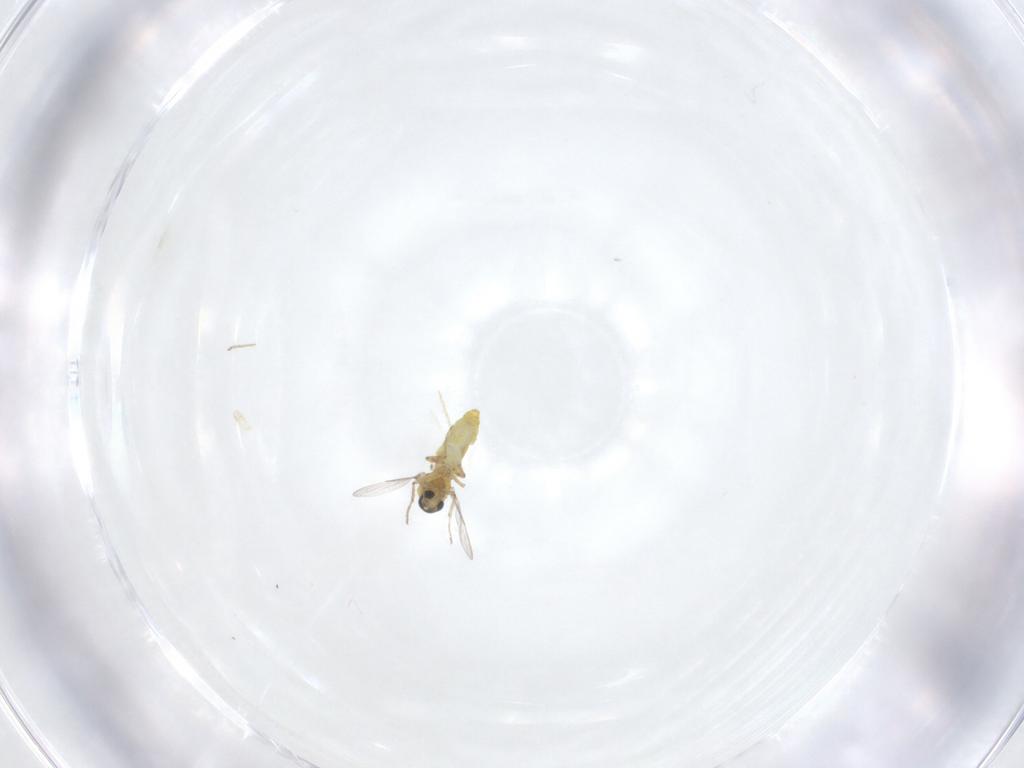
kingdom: Animalia
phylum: Arthropoda
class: Insecta
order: Diptera
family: Ceratopogonidae
